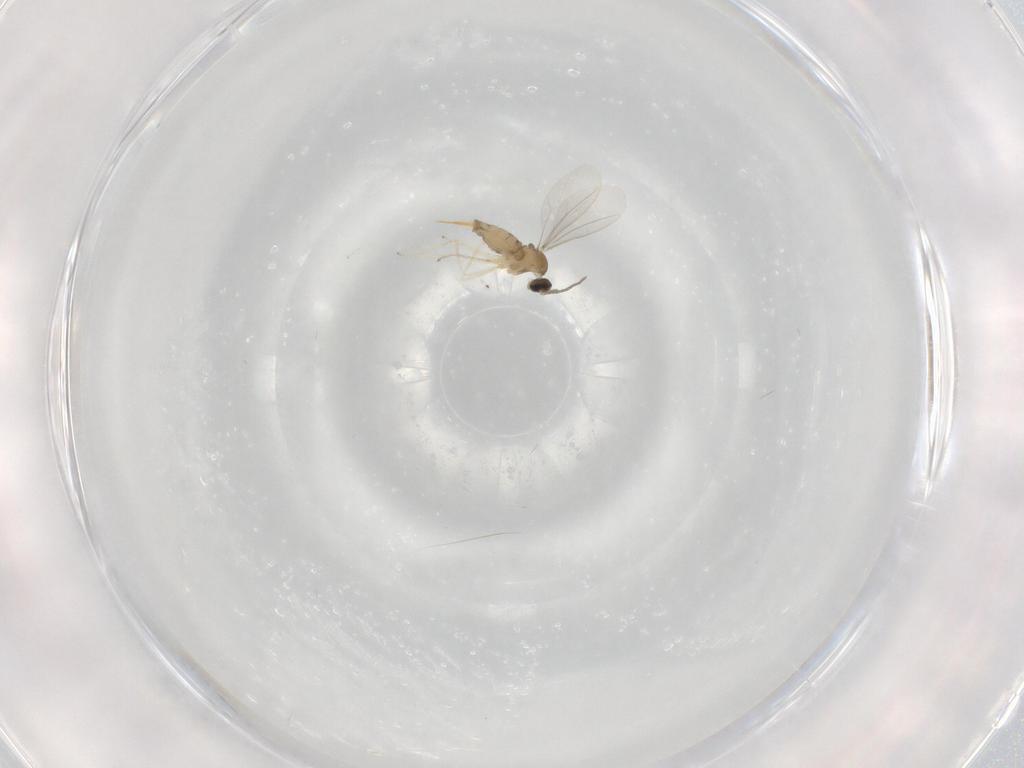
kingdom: Animalia
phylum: Arthropoda
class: Insecta
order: Diptera
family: Cecidomyiidae
